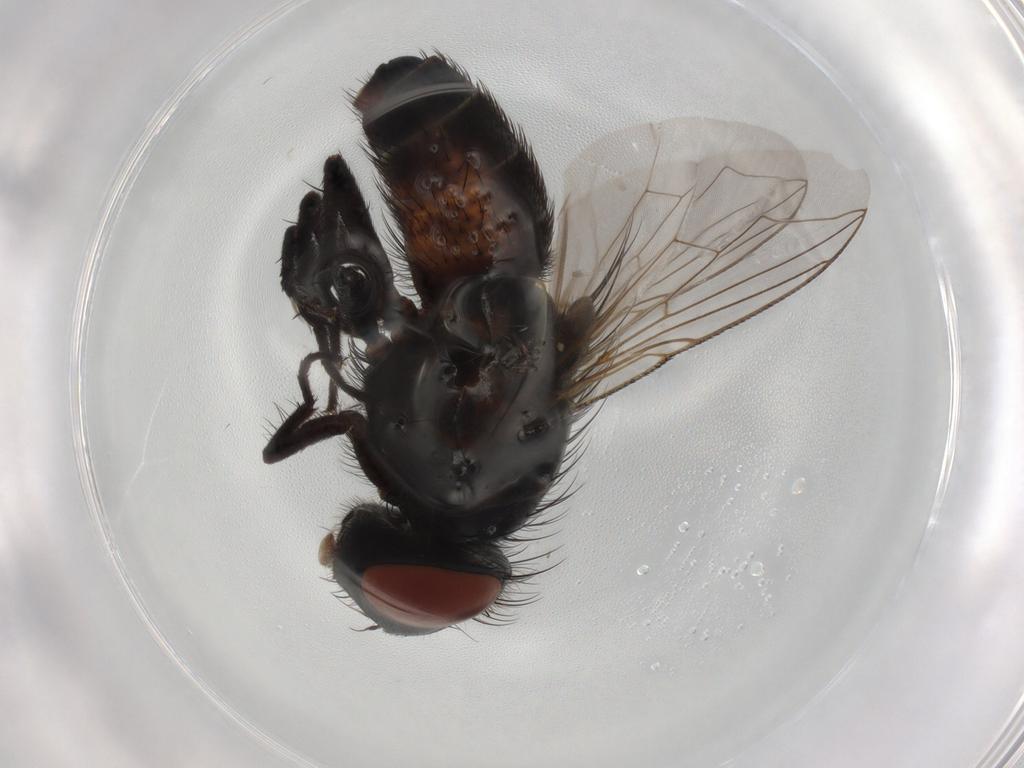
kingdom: Animalia
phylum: Arthropoda
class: Insecta
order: Diptera
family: Sarcophagidae
